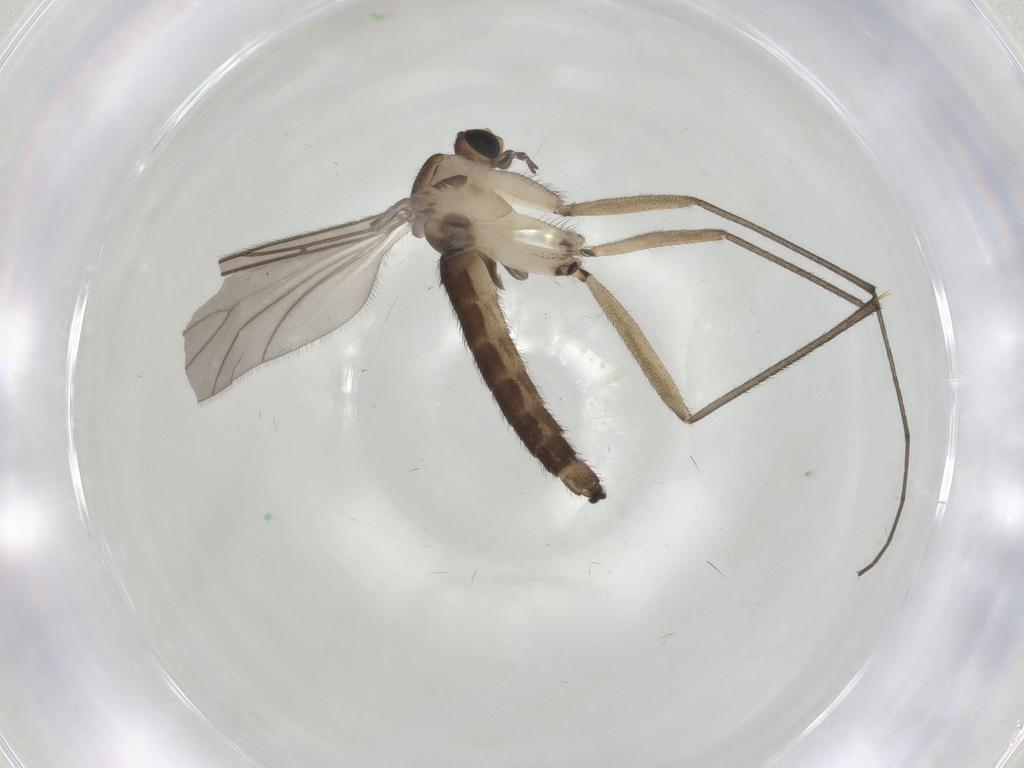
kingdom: Animalia
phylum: Arthropoda
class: Insecta
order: Diptera
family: Sciaridae
